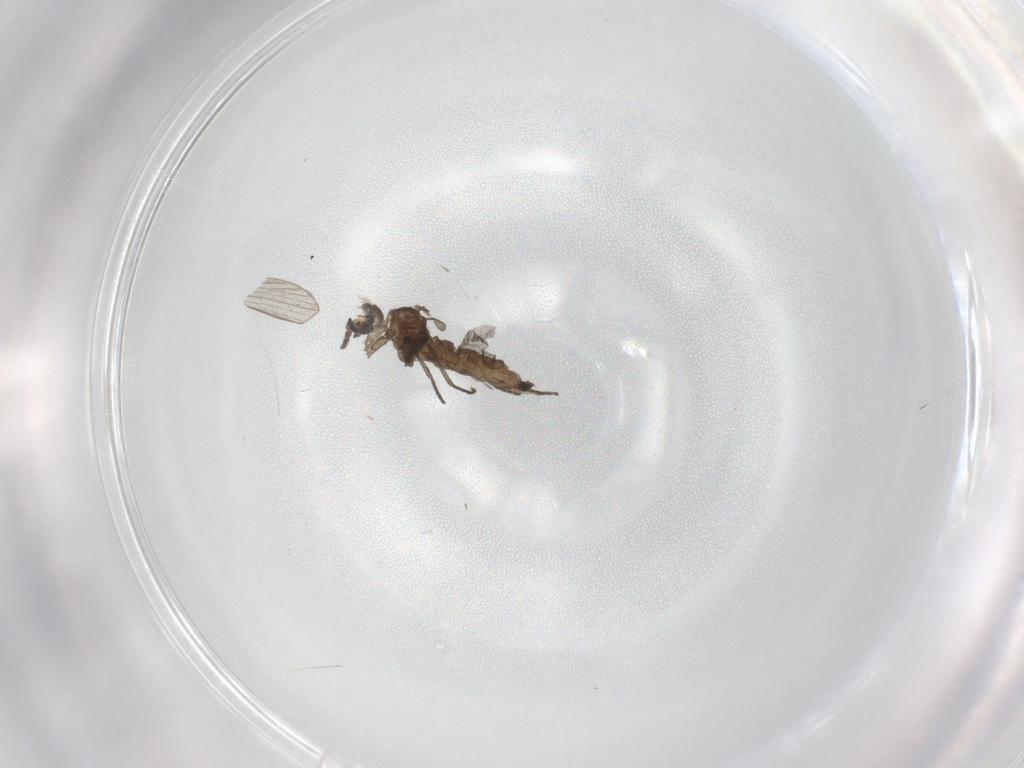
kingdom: Animalia
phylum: Arthropoda
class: Insecta
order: Diptera
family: Sciaridae
